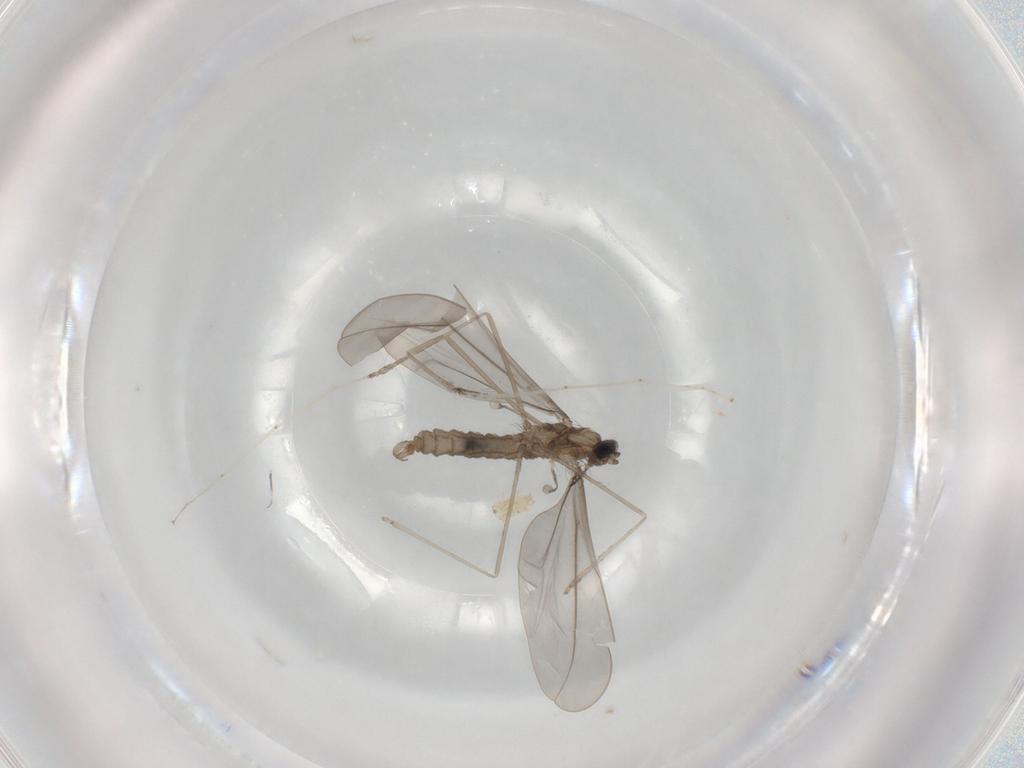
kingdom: Animalia
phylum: Arthropoda
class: Insecta
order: Diptera
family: Cecidomyiidae
